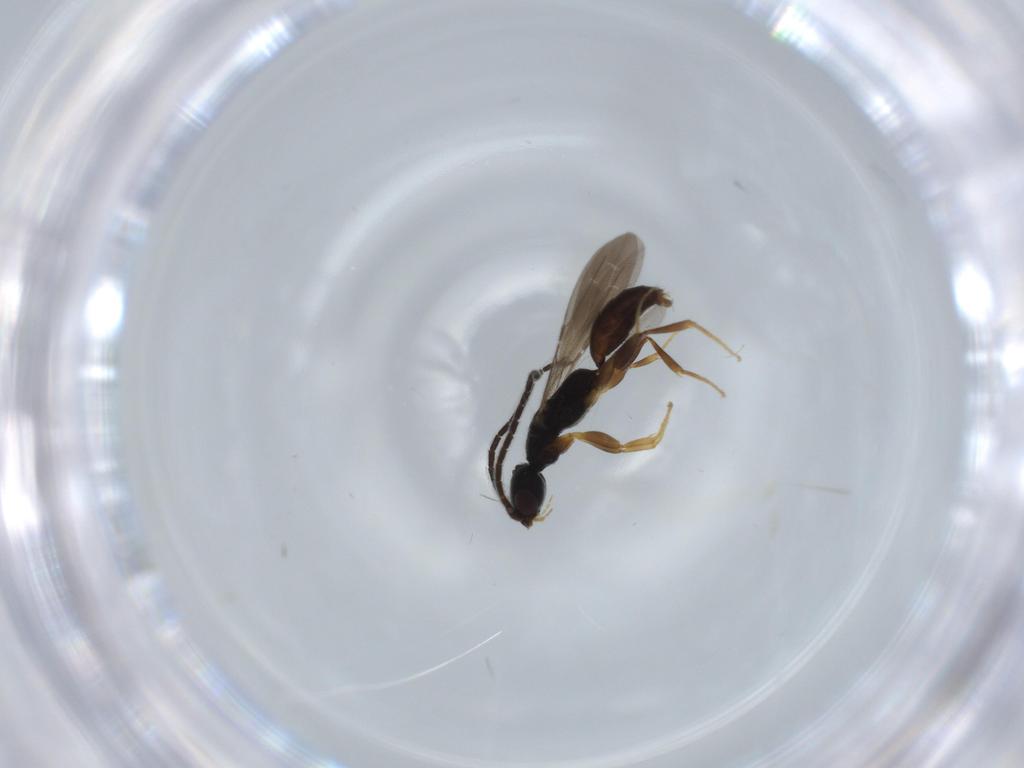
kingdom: Animalia
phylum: Arthropoda
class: Insecta
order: Hymenoptera
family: Bethylidae
